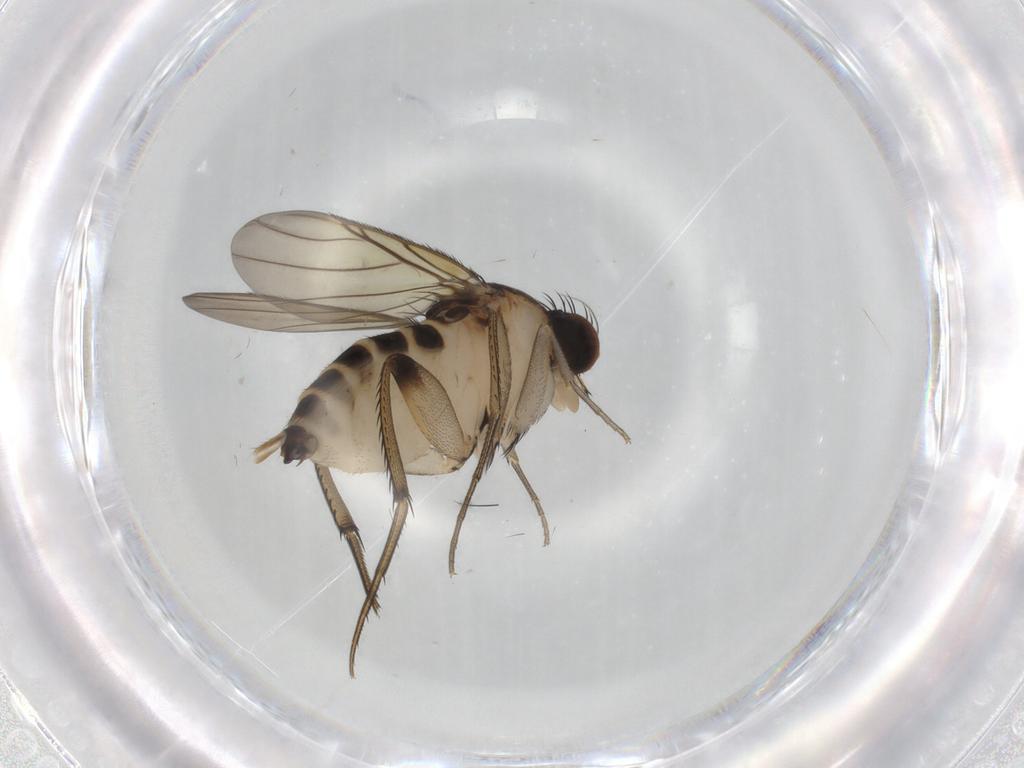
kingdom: Animalia
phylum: Arthropoda
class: Insecta
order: Diptera
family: Phoridae
